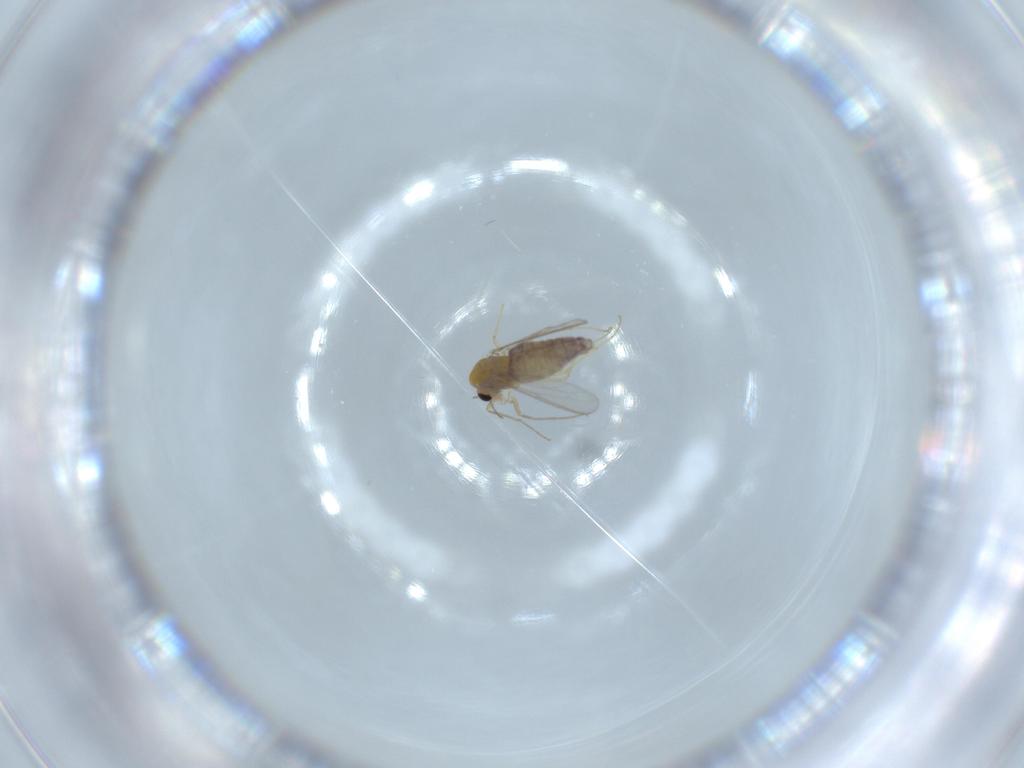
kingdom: Animalia
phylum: Arthropoda
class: Insecta
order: Diptera
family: Chironomidae
